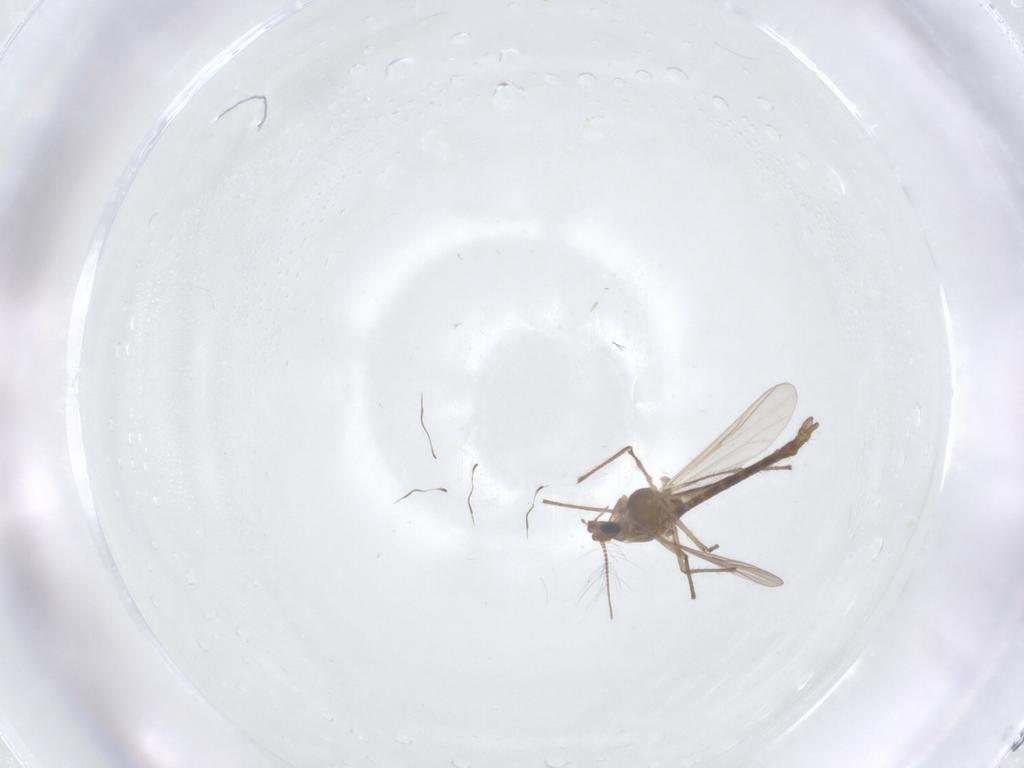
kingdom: Animalia
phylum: Arthropoda
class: Insecta
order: Diptera
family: Chironomidae
